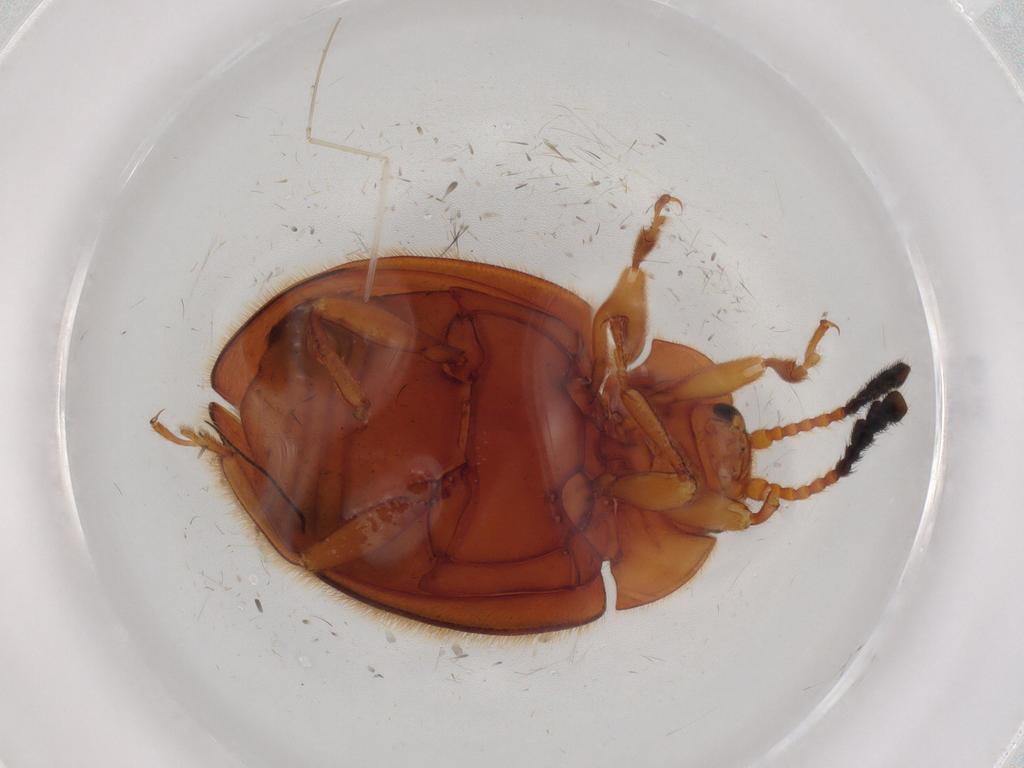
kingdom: Animalia
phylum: Arthropoda
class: Insecta
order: Coleoptera
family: Endomychidae
